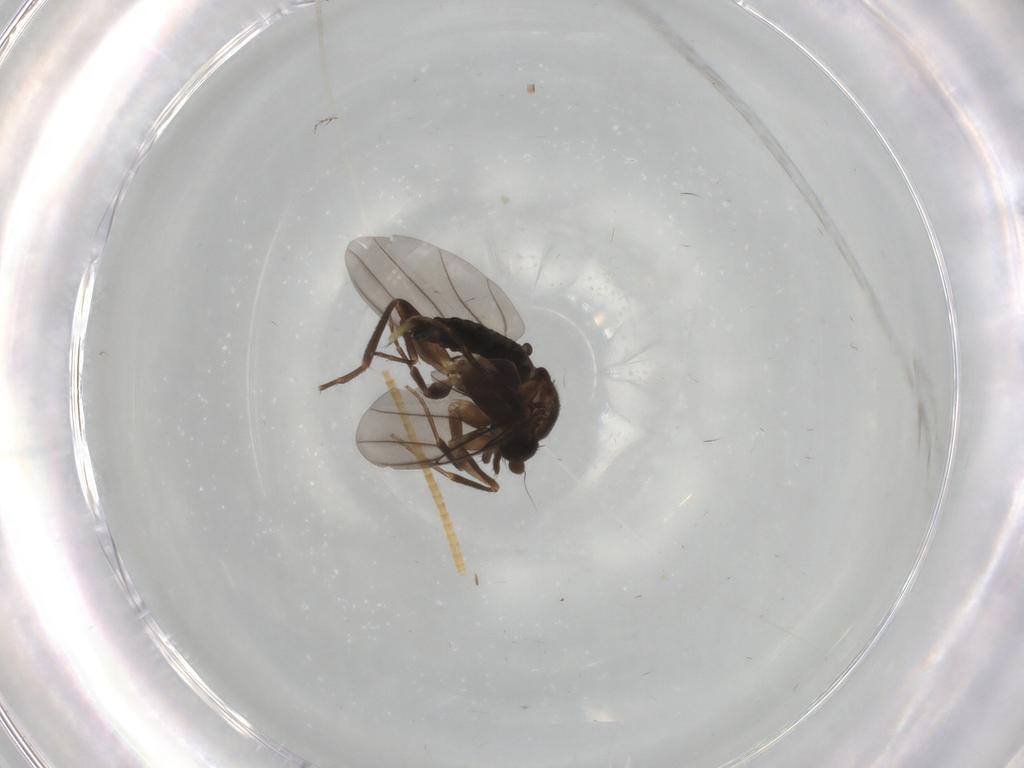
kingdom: Animalia
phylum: Arthropoda
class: Insecta
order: Diptera
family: Phoridae
